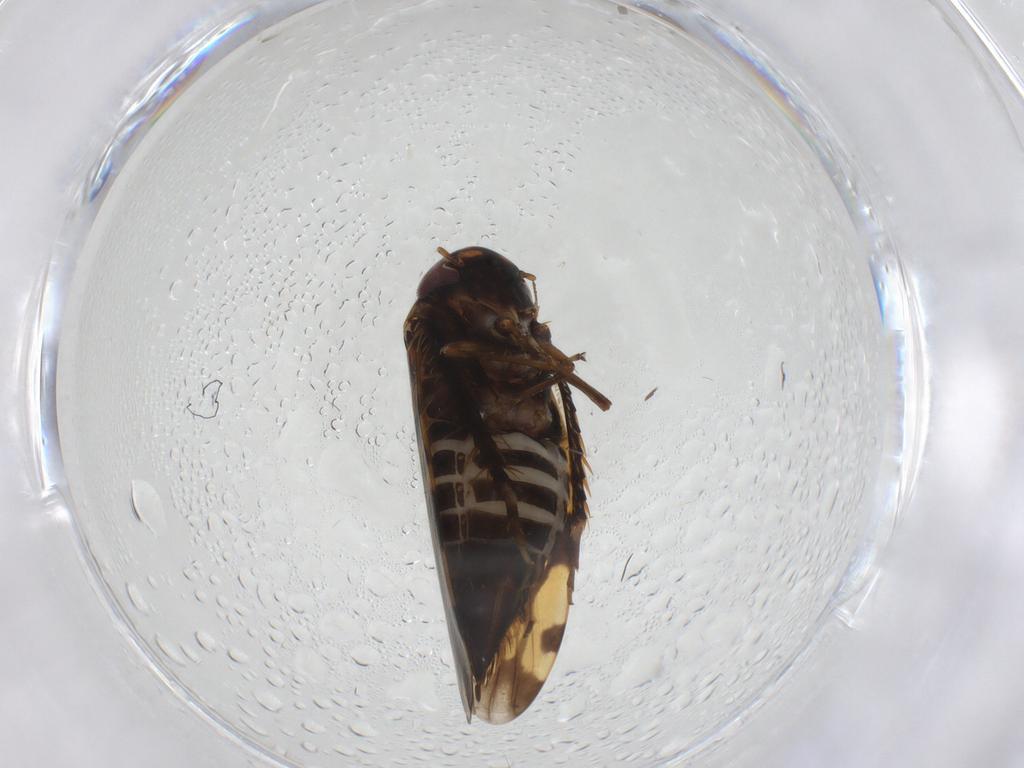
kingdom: Animalia
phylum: Arthropoda
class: Insecta
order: Hemiptera
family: Cicadellidae
